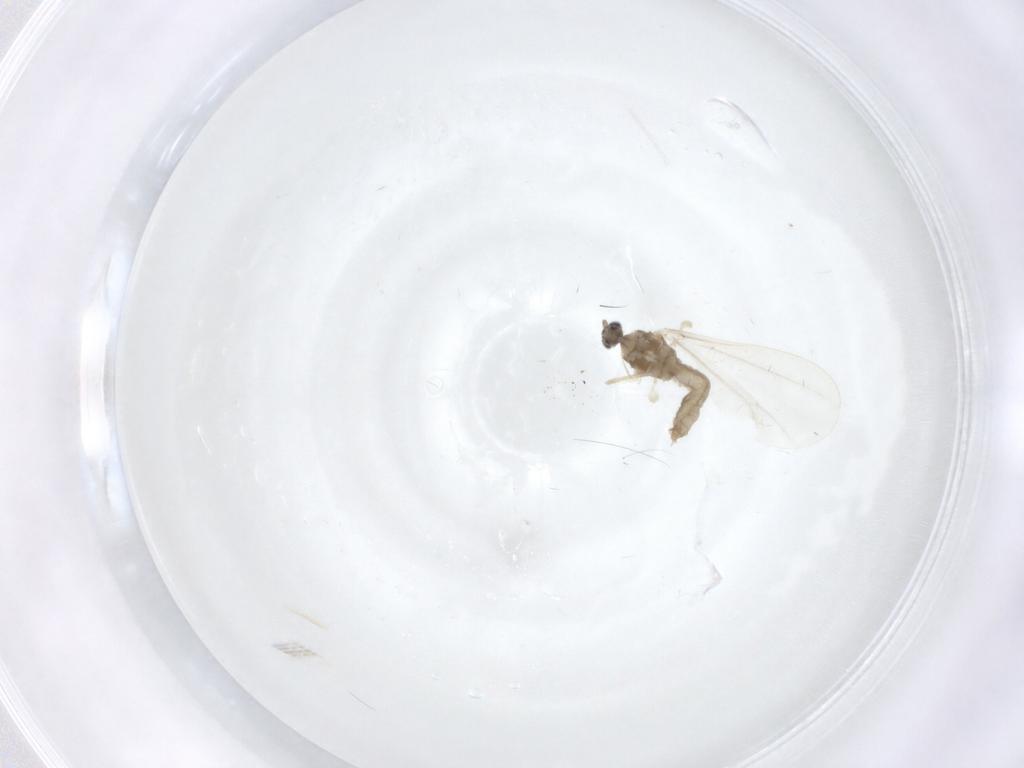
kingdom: Animalia
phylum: Arthropoda
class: Insecta
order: Diptera
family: Cecidomyiidae
